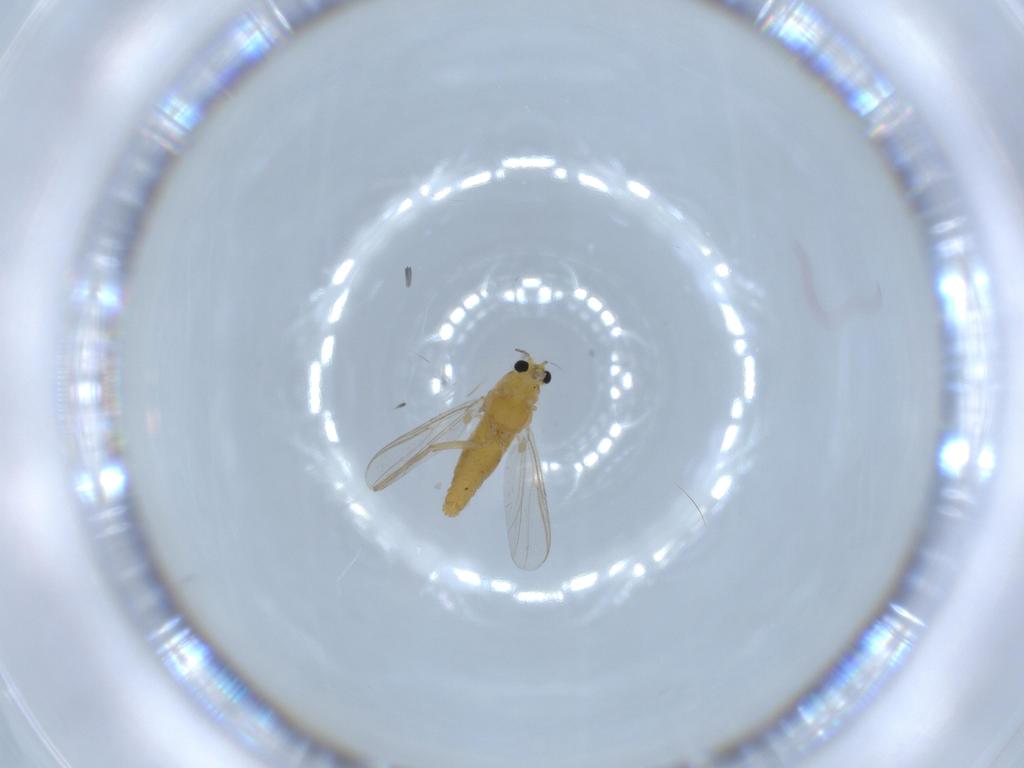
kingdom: Animalia
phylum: Arthropoda
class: Insecta
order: Diptera
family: Chironomidae
